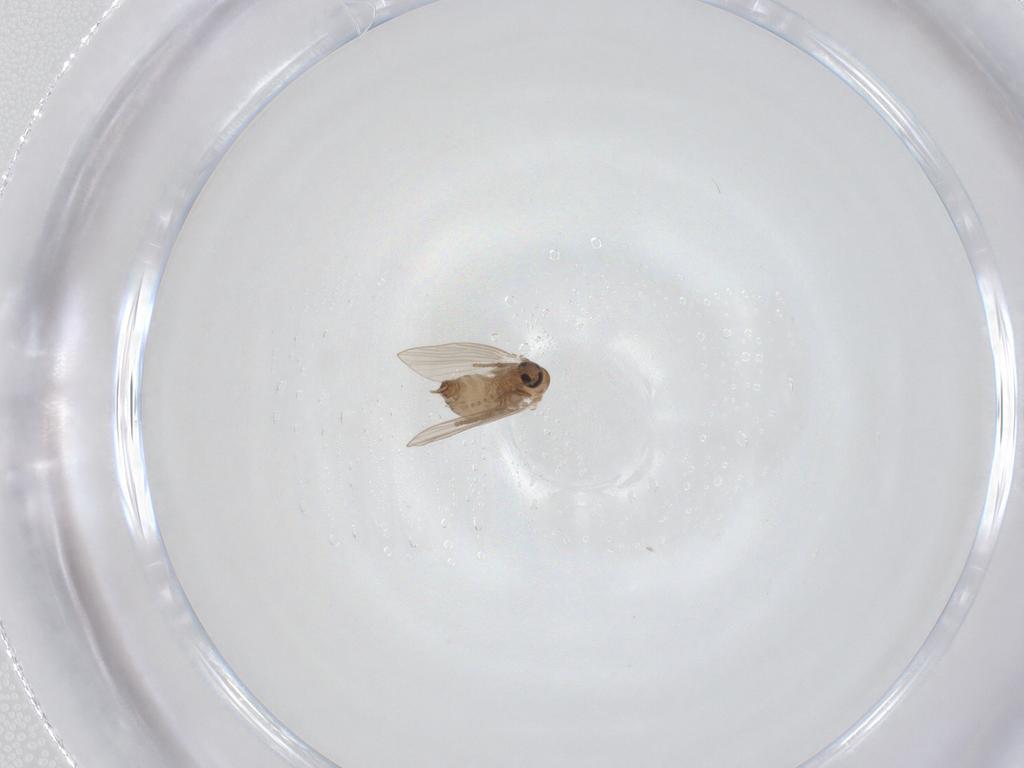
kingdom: Animalia
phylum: Arthropoda
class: Insecta
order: Diptera
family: Psychodidae
